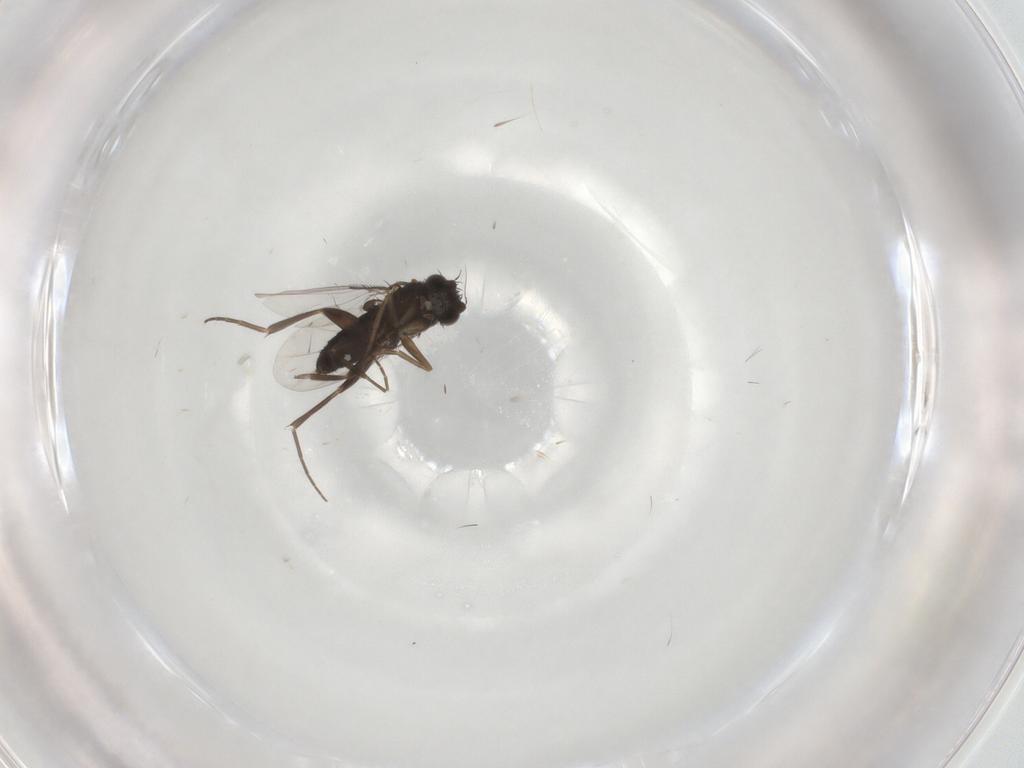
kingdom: Animalia
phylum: Arthropoda
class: Insecta
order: Diptera
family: Phoridae
